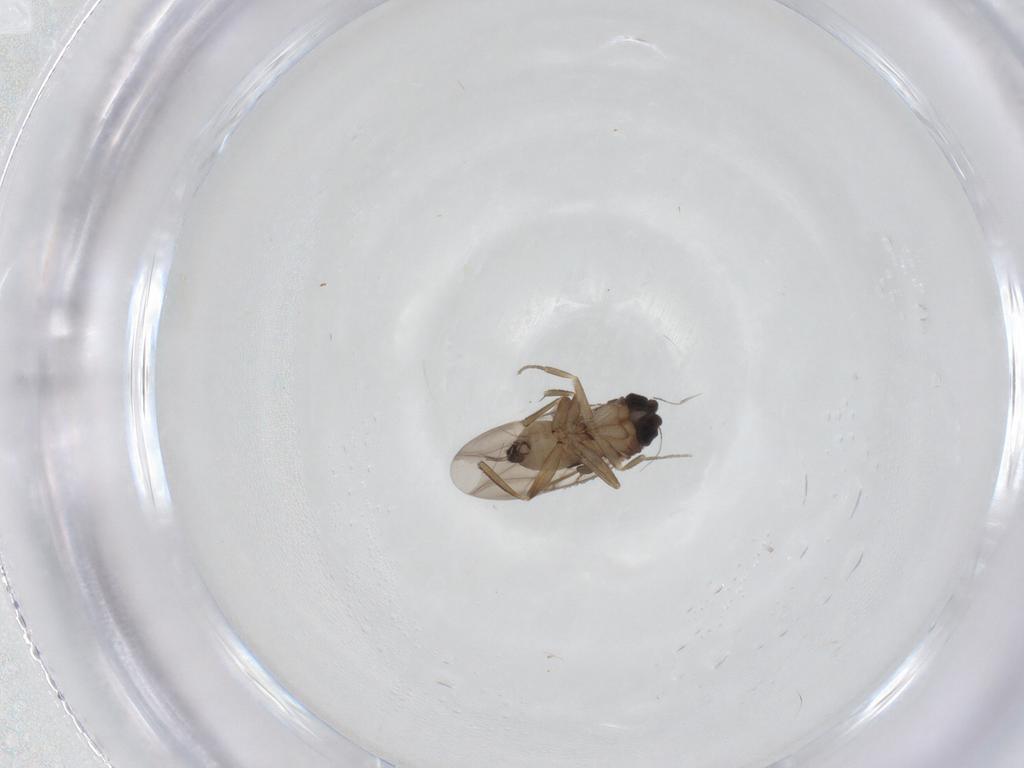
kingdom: Animalia
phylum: Arthropoda
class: Insecta
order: Diptera
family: Phoridae
